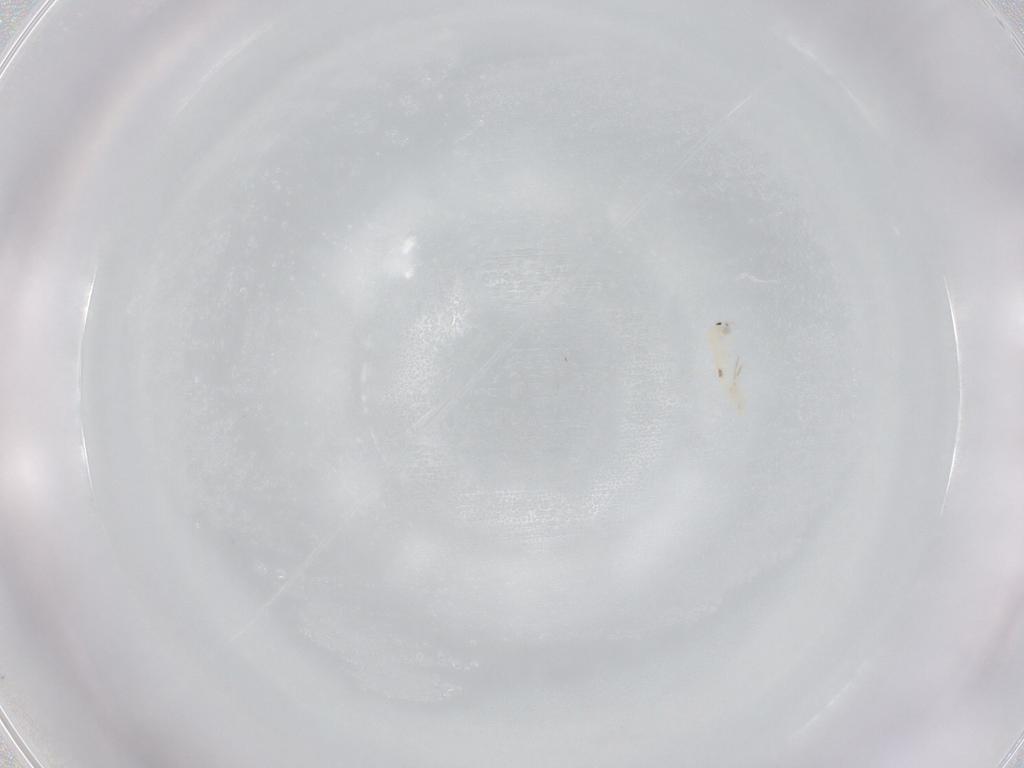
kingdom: Animalia
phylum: Arthropoda
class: Collembola
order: Entomobryomorpha
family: Entomobryidae
